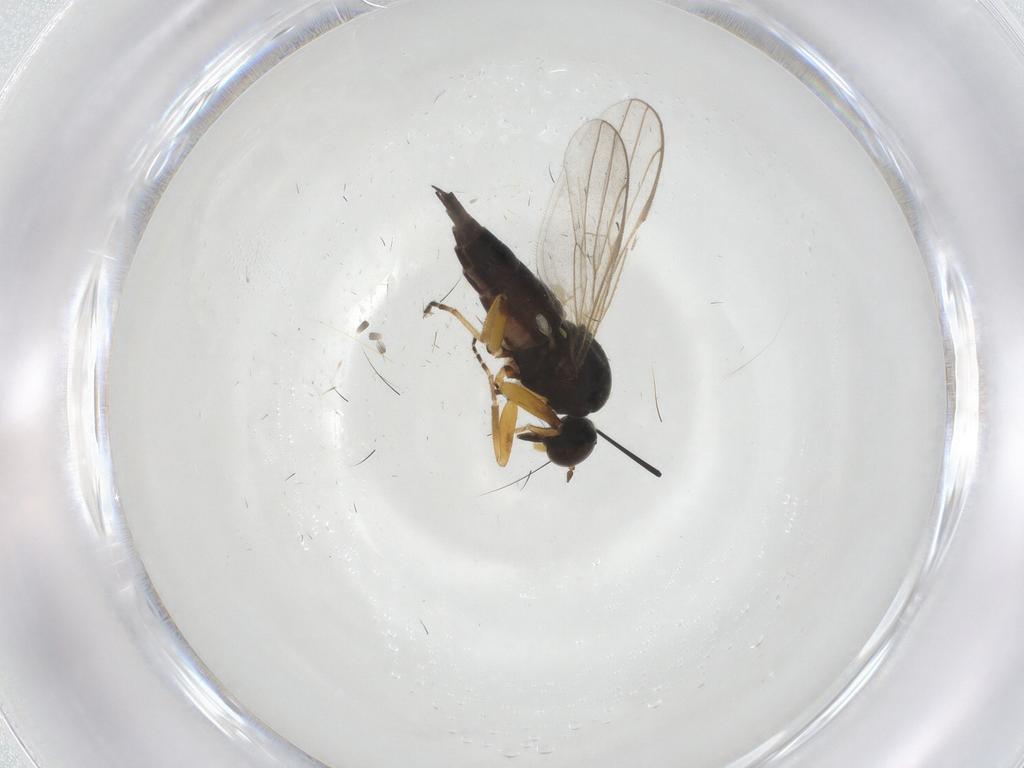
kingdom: Animalia
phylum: Arthropoda
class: Insecta
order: Diptera
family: Hybotidae
